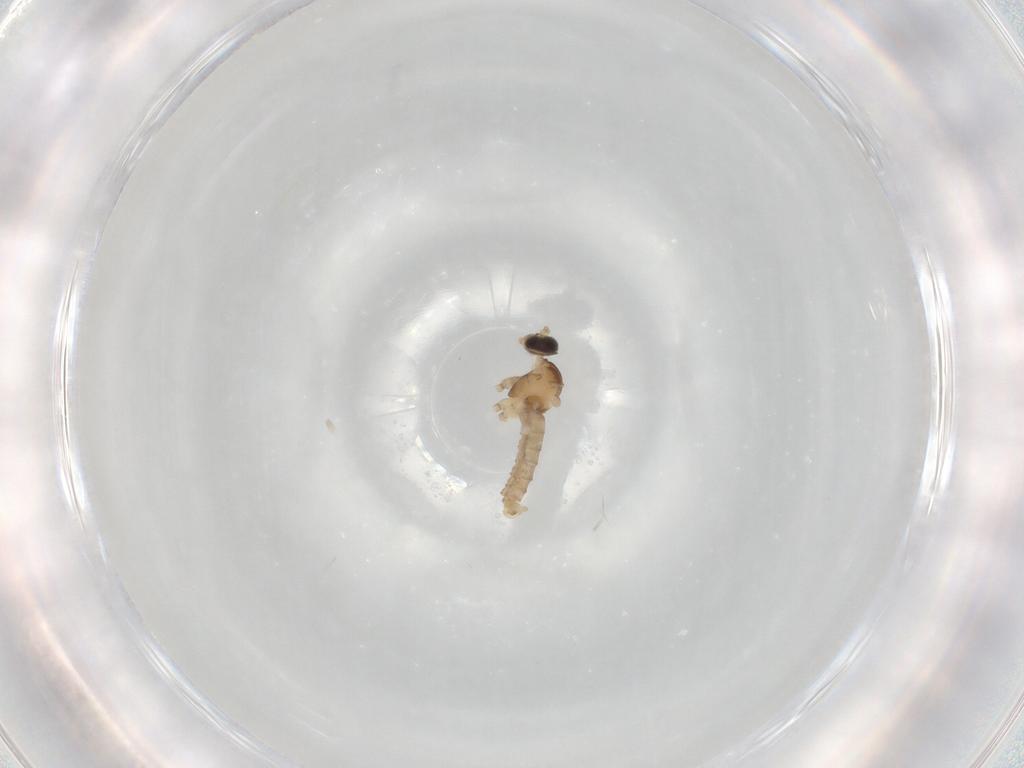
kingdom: Animalia
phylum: Arthropoda
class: Insecta
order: Diptera
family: Cecidomyiidae
